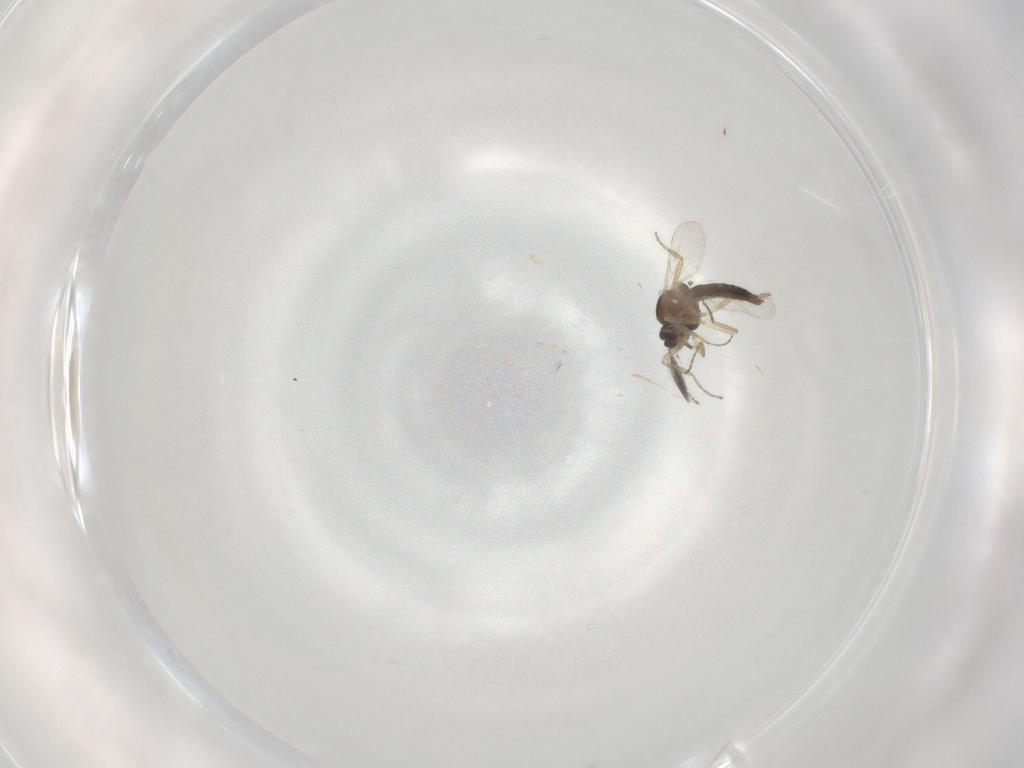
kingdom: Animalia
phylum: Arthropoda
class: Insecta
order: Diptera
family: Ceratopogonidae
